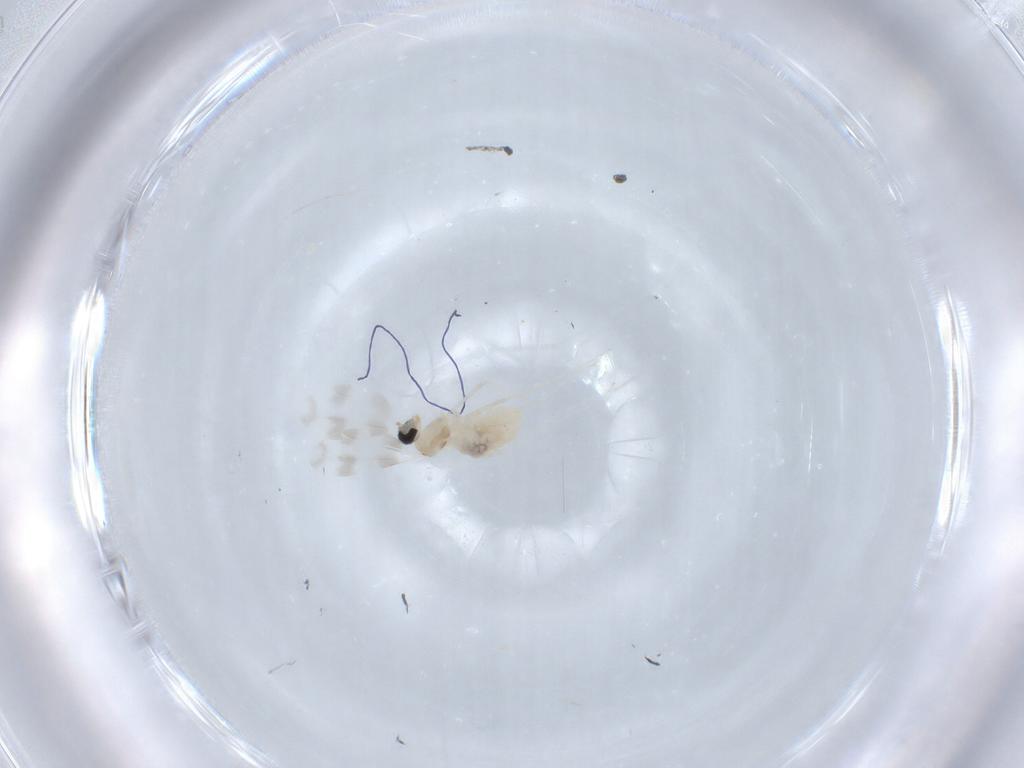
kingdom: Animalia
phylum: Arthropoda
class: Insecta
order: Diptera
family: Cecidomyiidae
